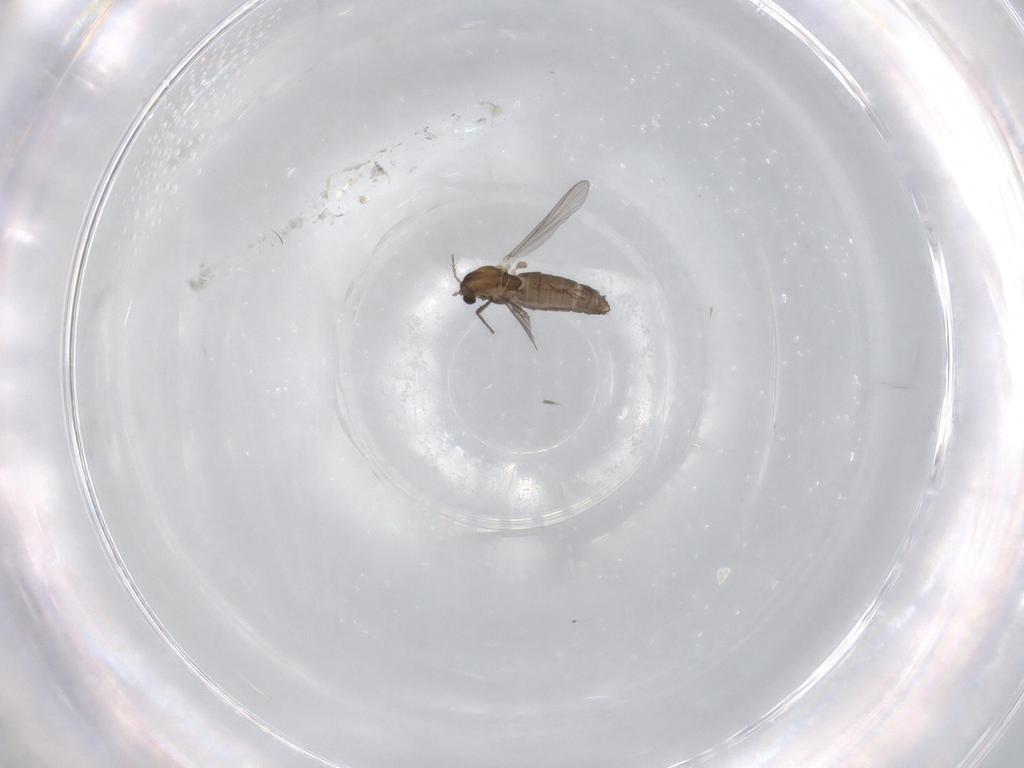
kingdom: Animalia
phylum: Arthropoda
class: Insecta
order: Diptera
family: Chironomidae
